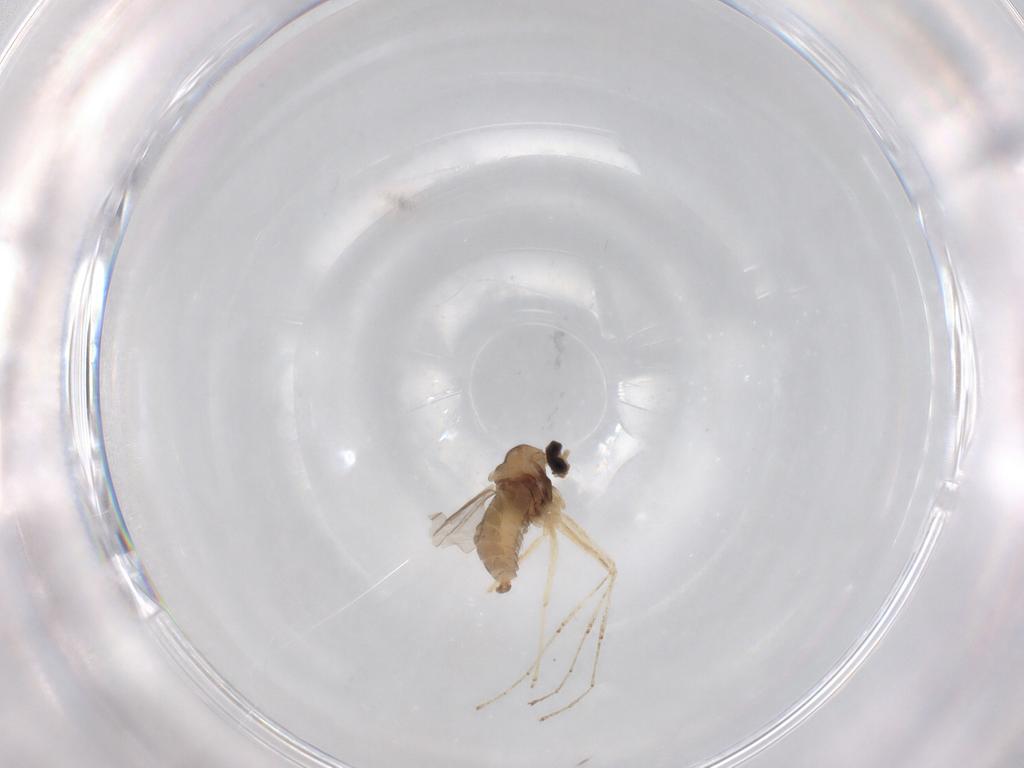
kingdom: Animalia
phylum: Arthropoda
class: Insecta
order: Diptera
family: Cecidomyiidae
